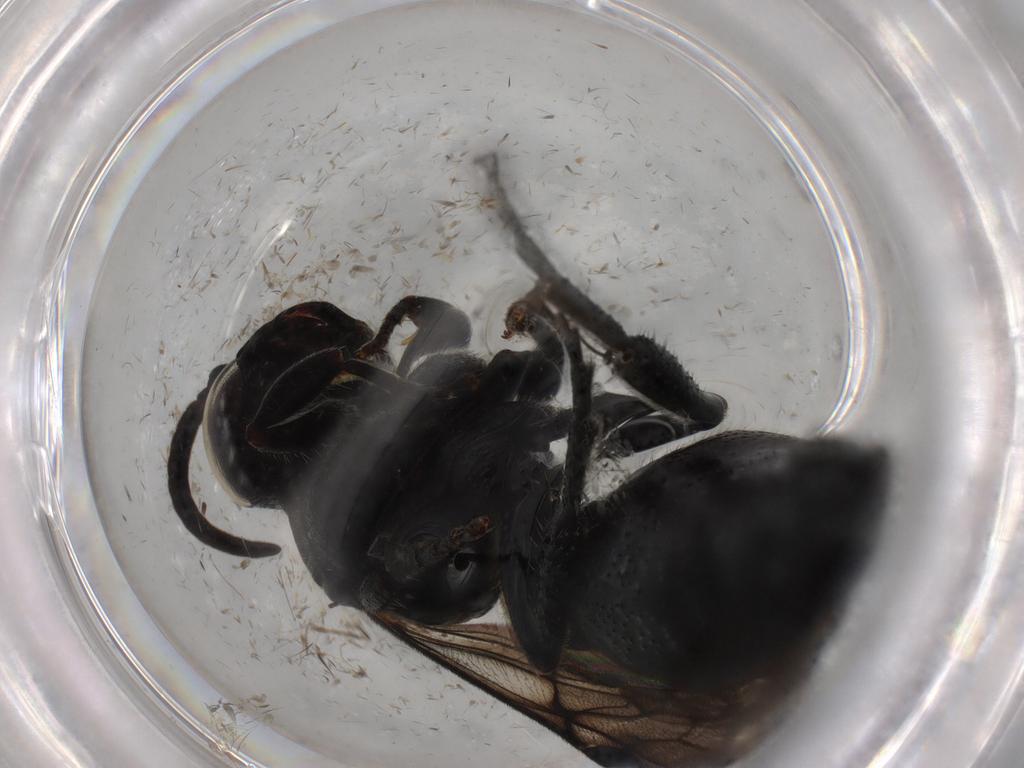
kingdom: Animalia
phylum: Arthropoda
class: Insecta
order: Hymenoptera
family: Tiphiidae
